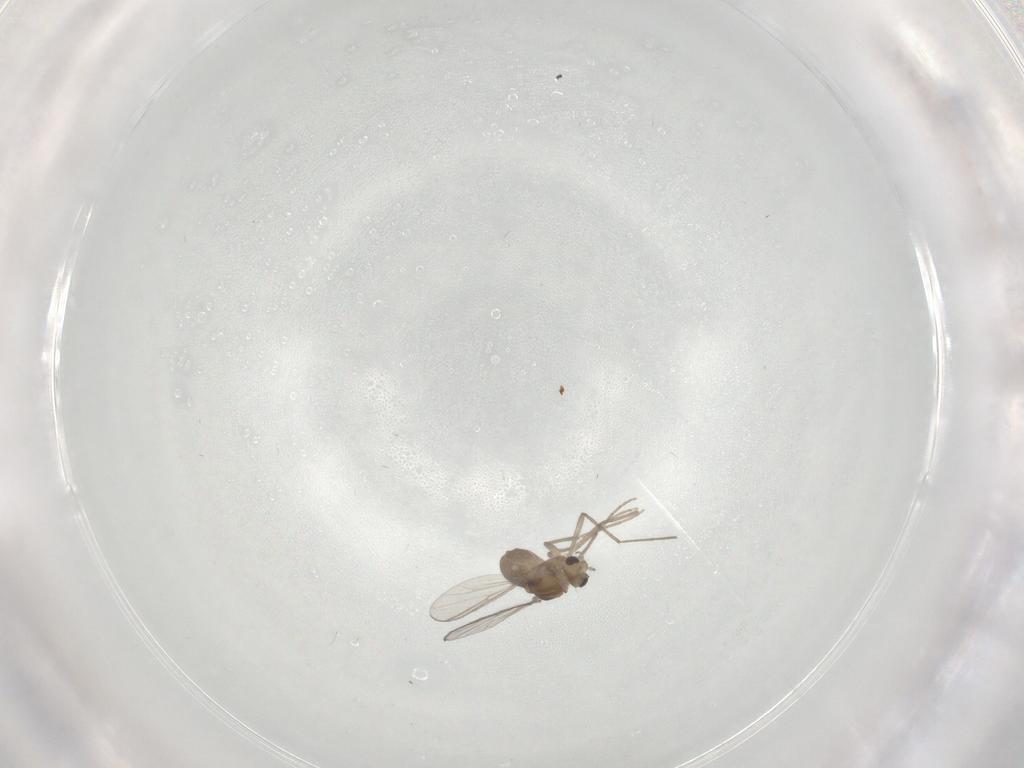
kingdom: Animalia
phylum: Arthropoda
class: Insecta
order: Diptera
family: Chironomidae
